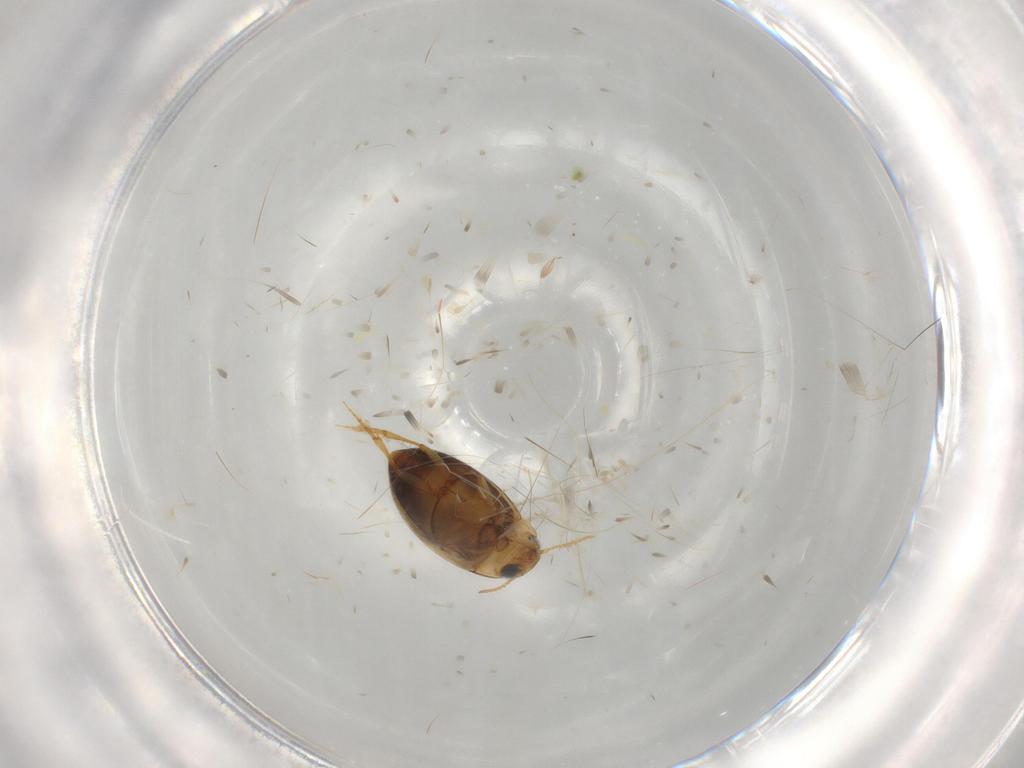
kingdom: Animalia
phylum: Arthropoda
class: Insecta
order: Coleoptera
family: Dytiscidae
